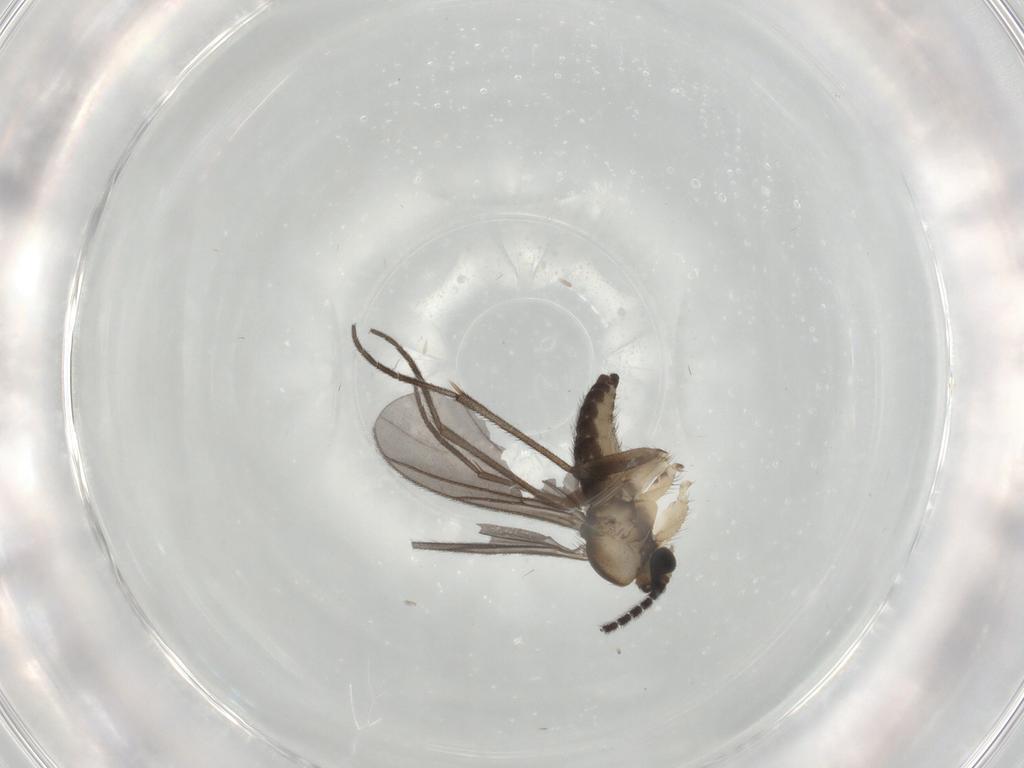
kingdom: Animalia
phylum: Arthropoda
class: Insecta
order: Diptera
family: Sciaridae
